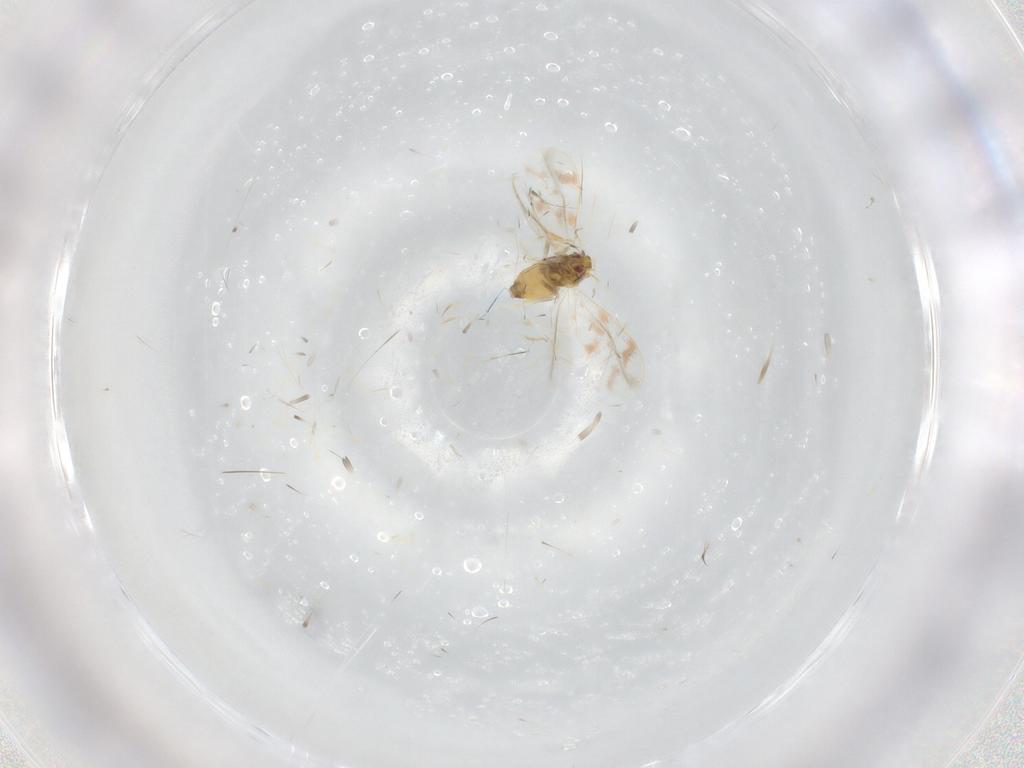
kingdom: Animalia
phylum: Arthropoda
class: Insecta
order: Hemiptera
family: Aleyrodidae
